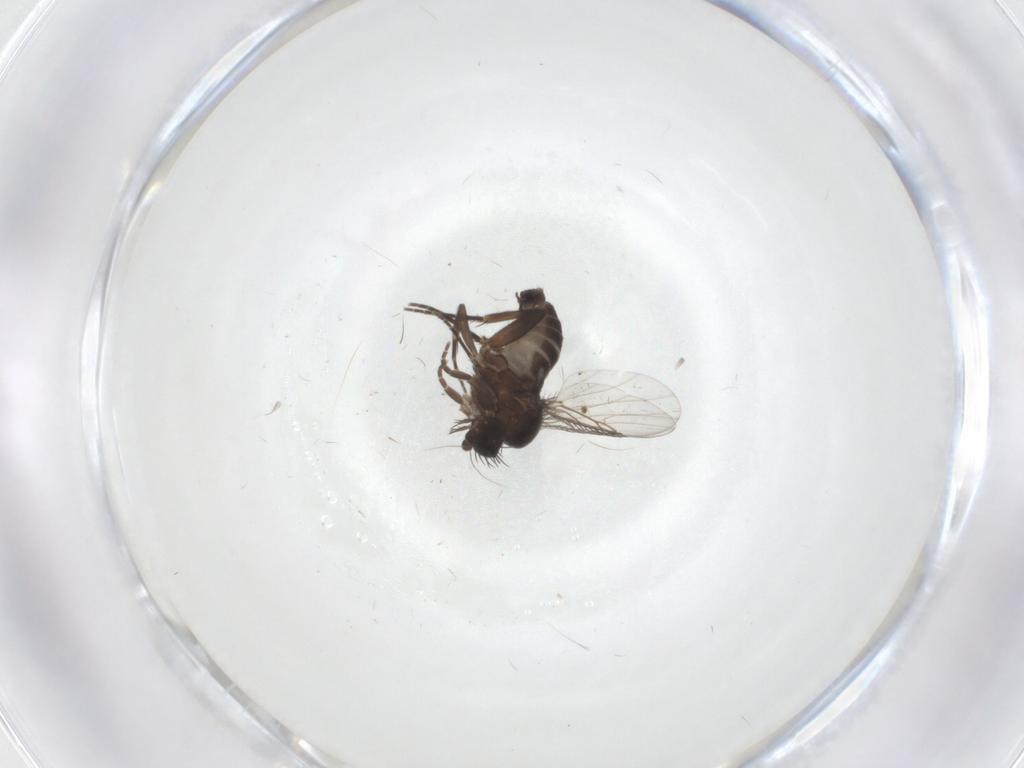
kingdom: Animalia
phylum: Arthropoda
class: Insecta
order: Diptera
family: Phoridae
